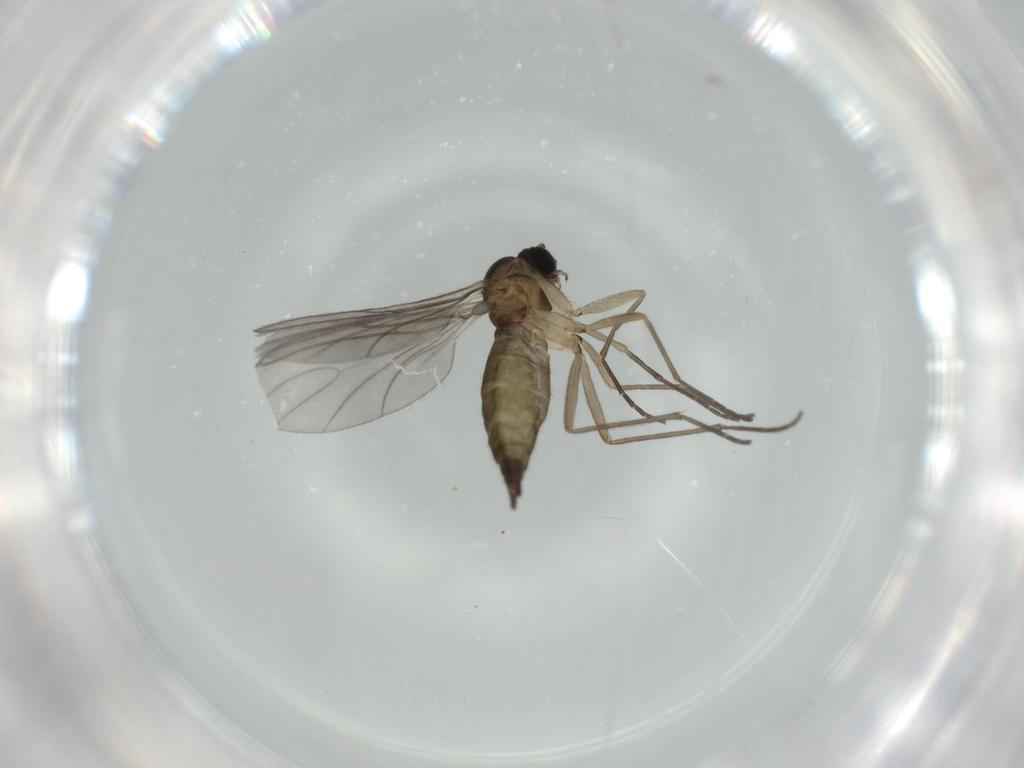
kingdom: Animalia
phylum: Arthropoda
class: Insecta
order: Diptera
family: Sciaridae
